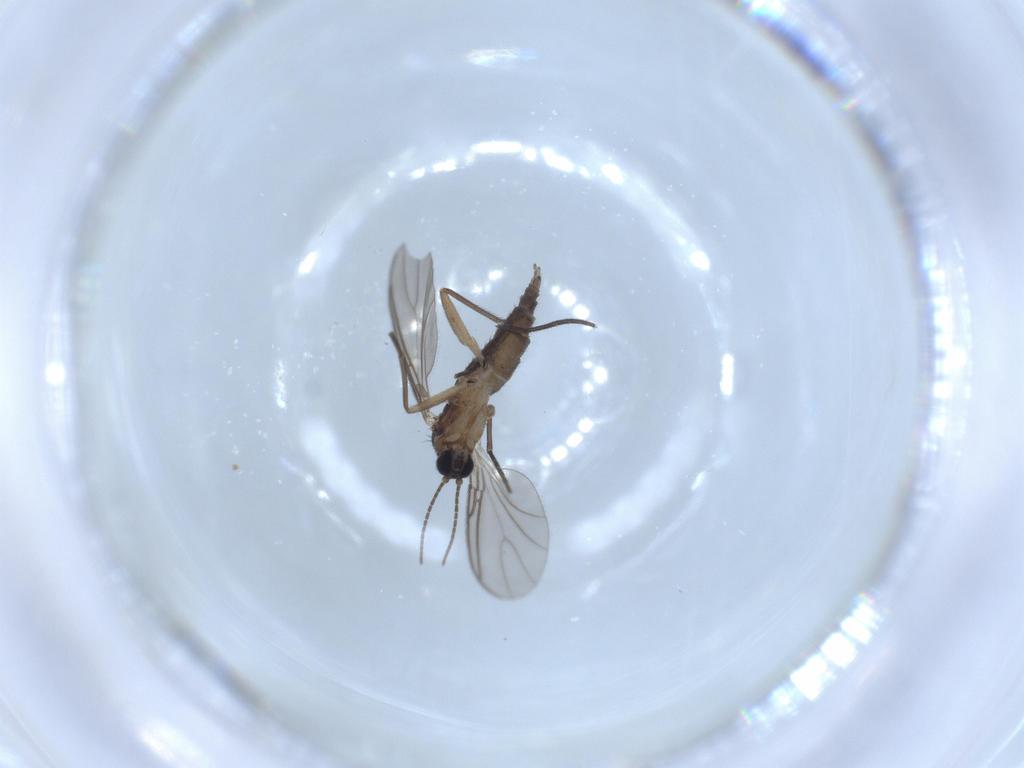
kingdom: Animalia
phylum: Arthropoda
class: Insecta
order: Diptera
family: Sciaridae
